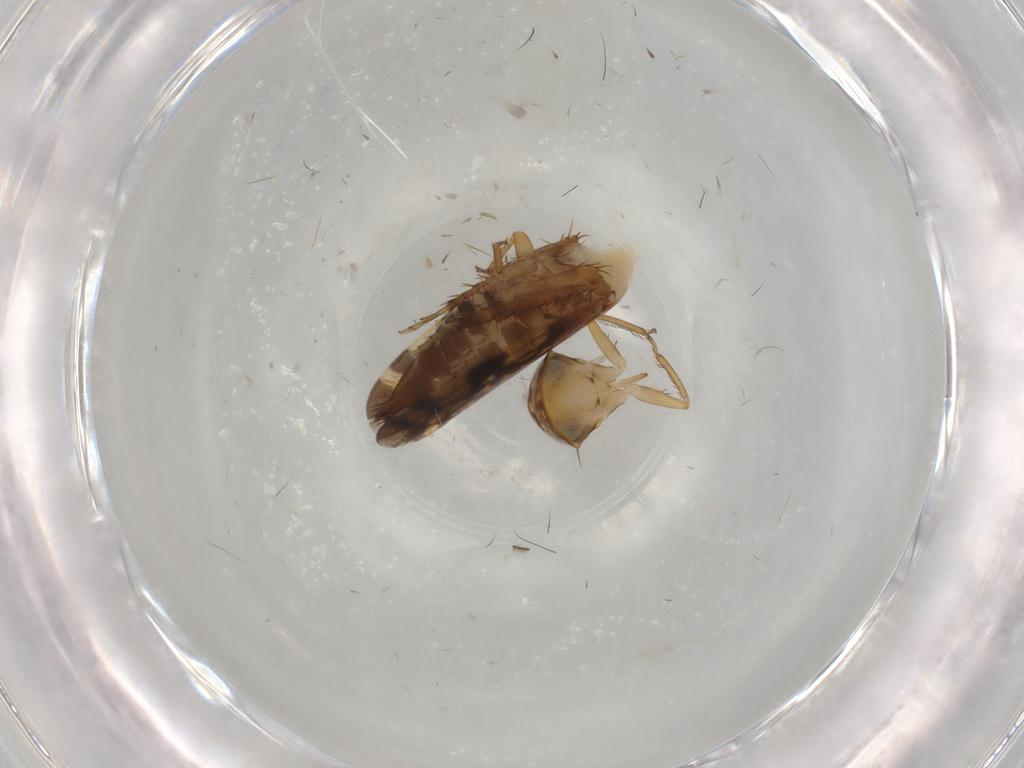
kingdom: Animalia
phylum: Arthropoda
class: Insecta
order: Hemiptera
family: Cicadellidae
